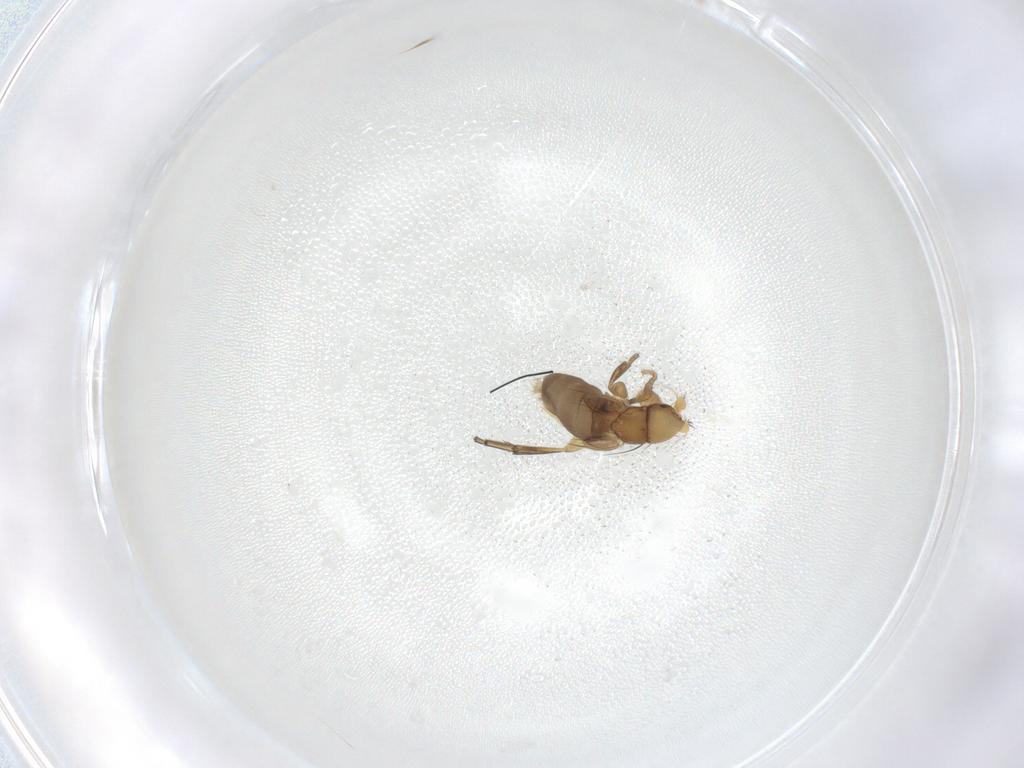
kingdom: Animalia
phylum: Arthropoda
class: Insecta
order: Diptera
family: Phoridae
